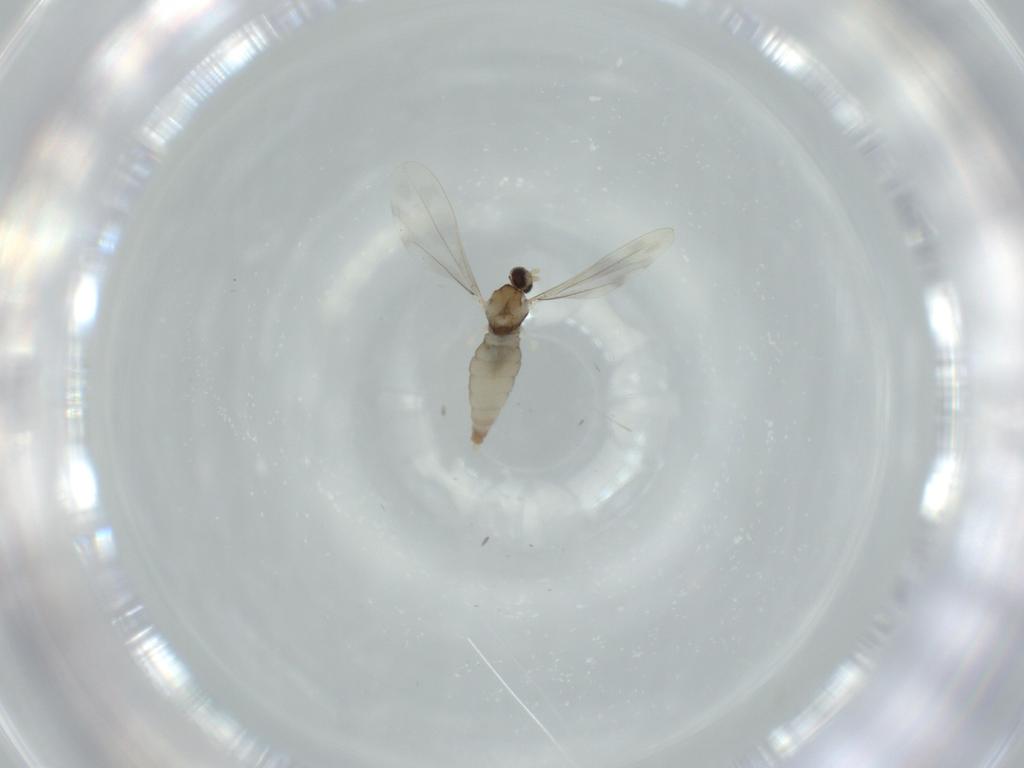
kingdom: Animalia
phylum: Arthropoda
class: Insecta
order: Diptera
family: Cecidomyiidae
